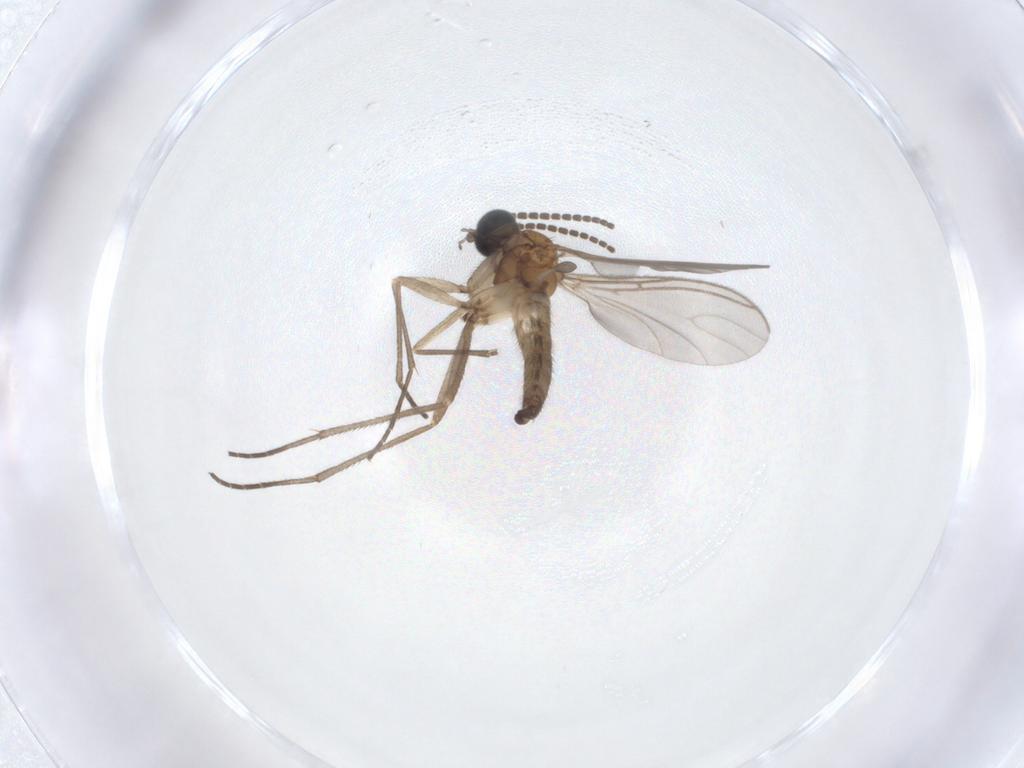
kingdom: Animalia
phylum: Arthropoda
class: Insecta
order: Diptera
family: Sciaridae
